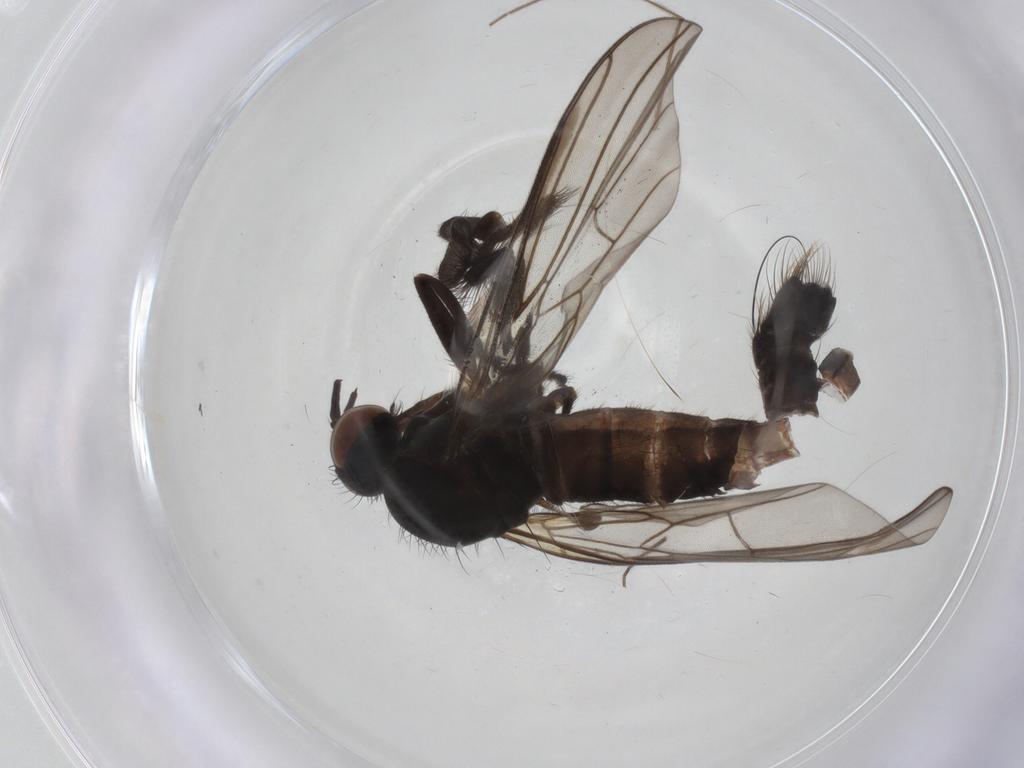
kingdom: Animalia
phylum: Arthropoda
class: Insecta
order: Diptera
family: Empididae
